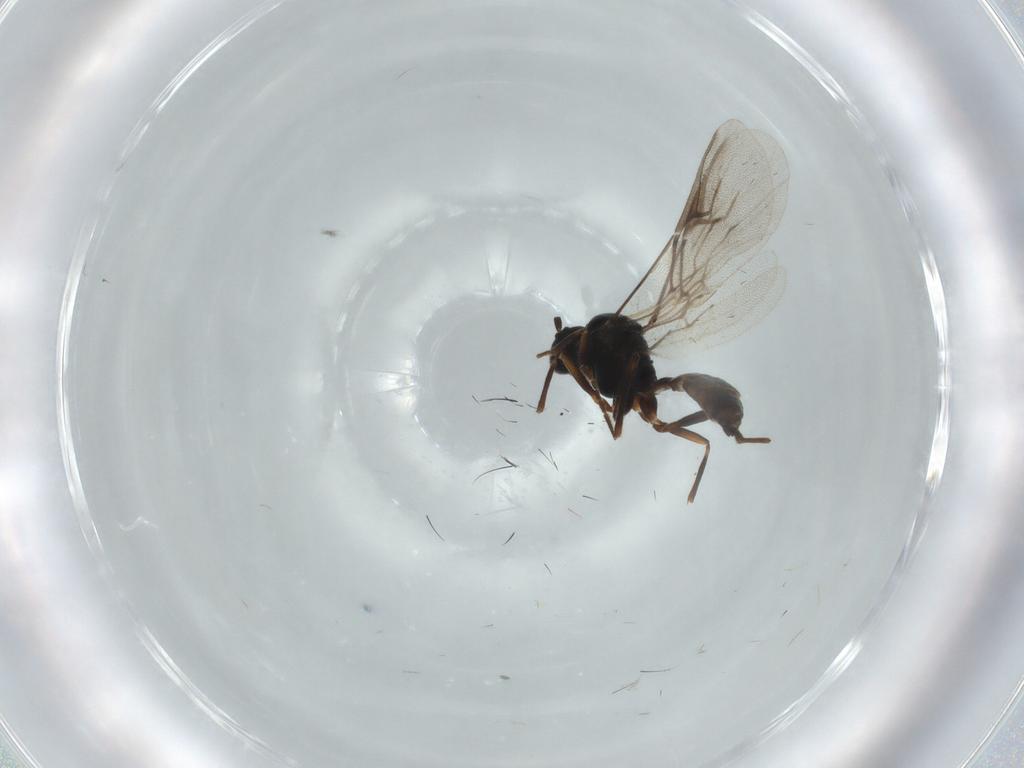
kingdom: Animalia
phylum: Arthropoda
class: Insecta
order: Hymenoptera
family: Braconidae
